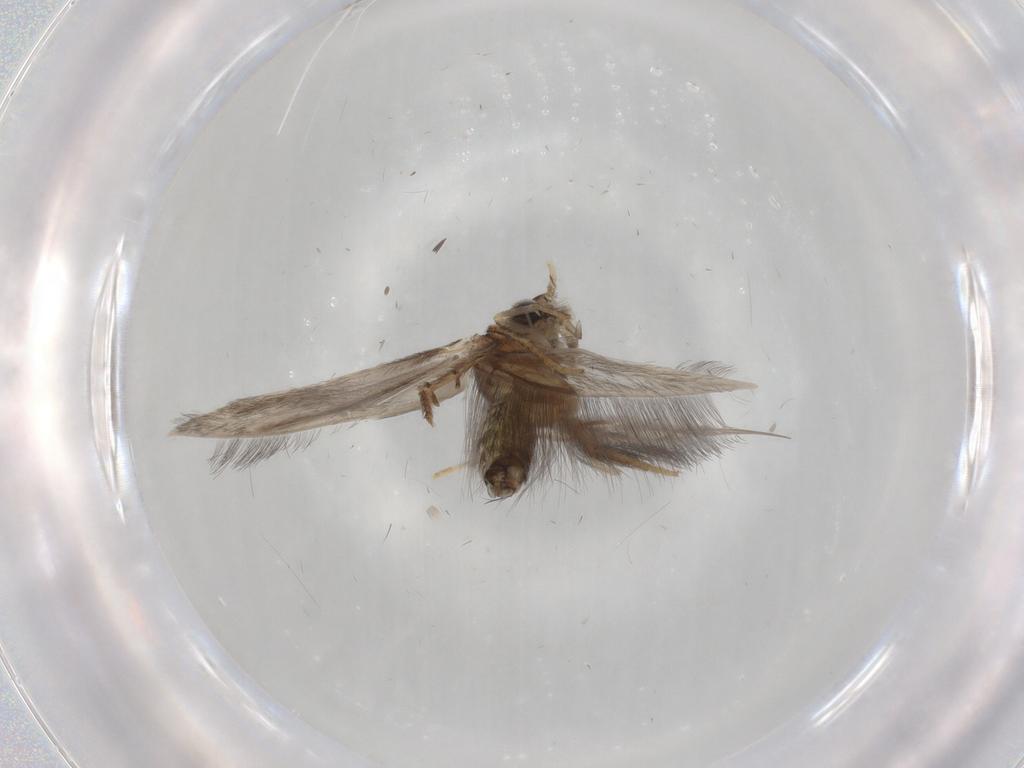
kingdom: Animalia
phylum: Arthropoda
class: Insecta
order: Trichoptera
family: Hydroptilidae
